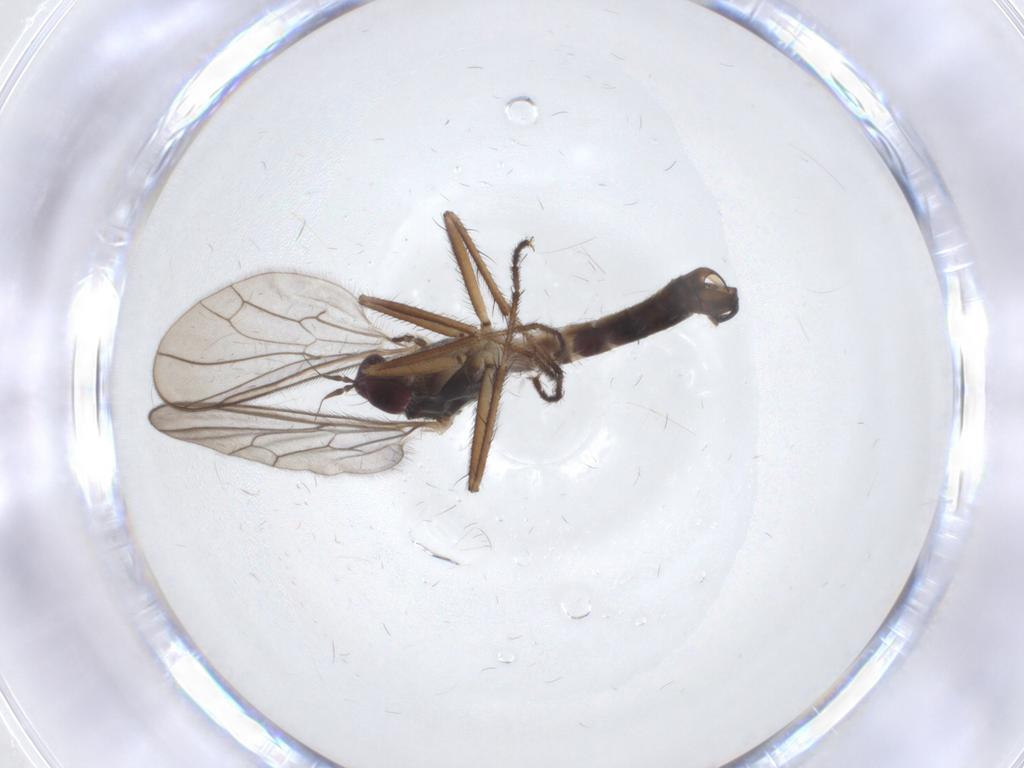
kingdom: Animalia
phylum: Arthropoda
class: Insecta
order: Diptera
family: Hybotidae
